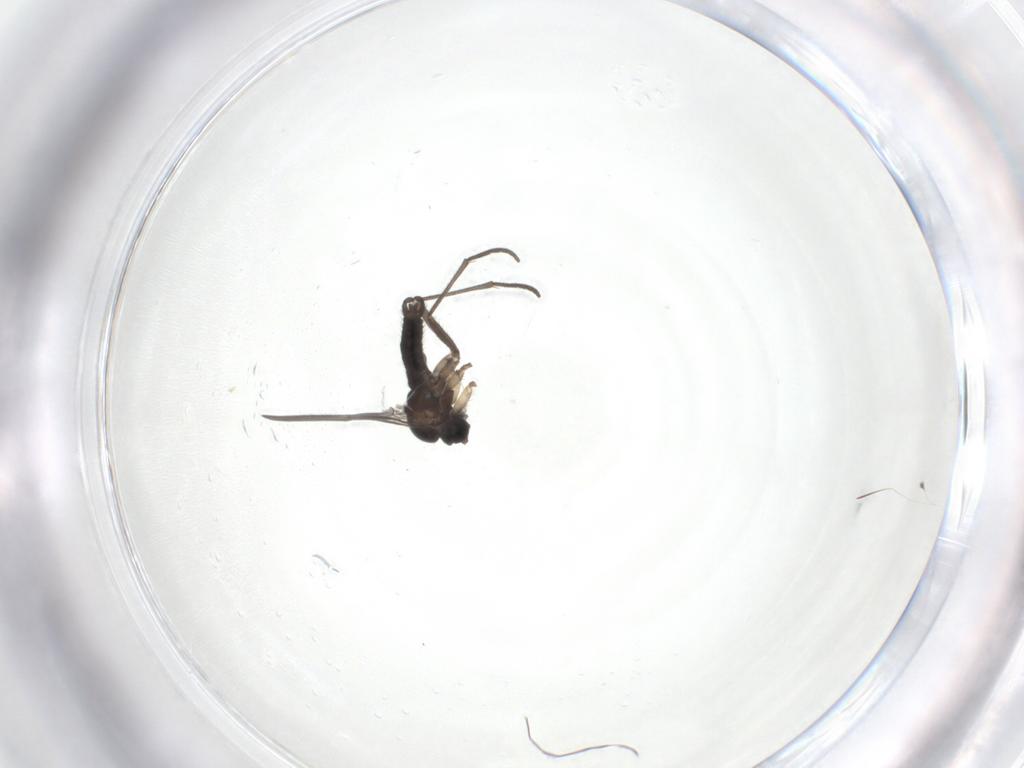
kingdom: Animalia
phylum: Arthropoda
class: Insecta
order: Diptera
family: Sciaridae
